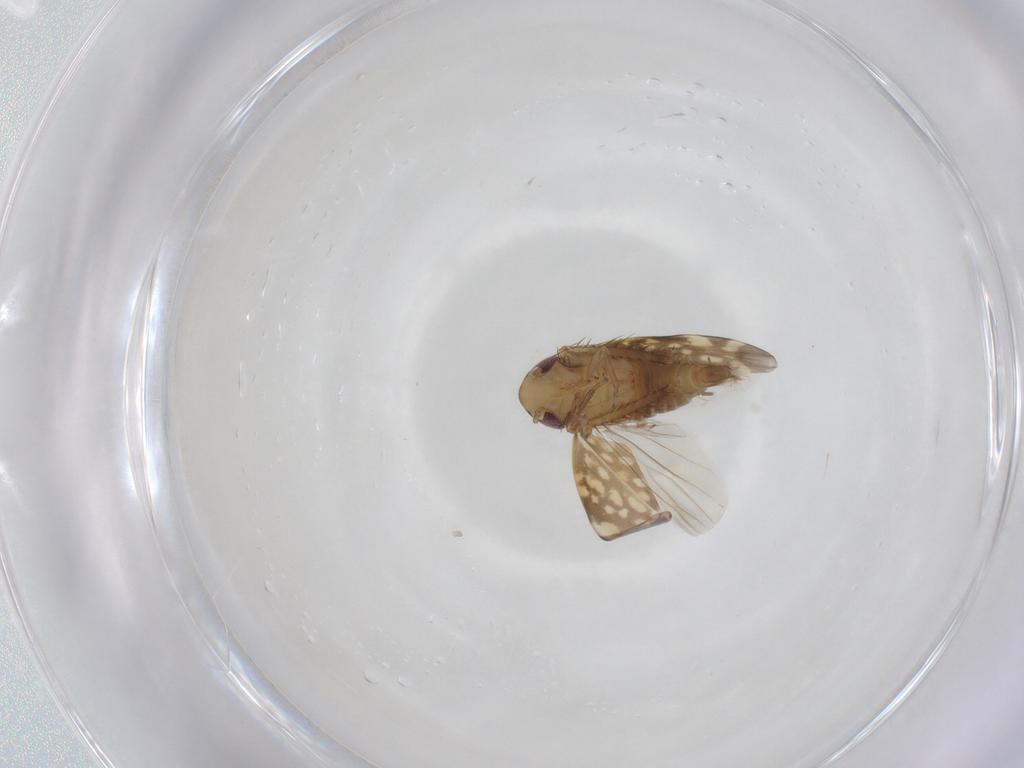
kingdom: Animalia
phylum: Arthropoda
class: Insecta
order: Hemiptera
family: Cicadellidae
